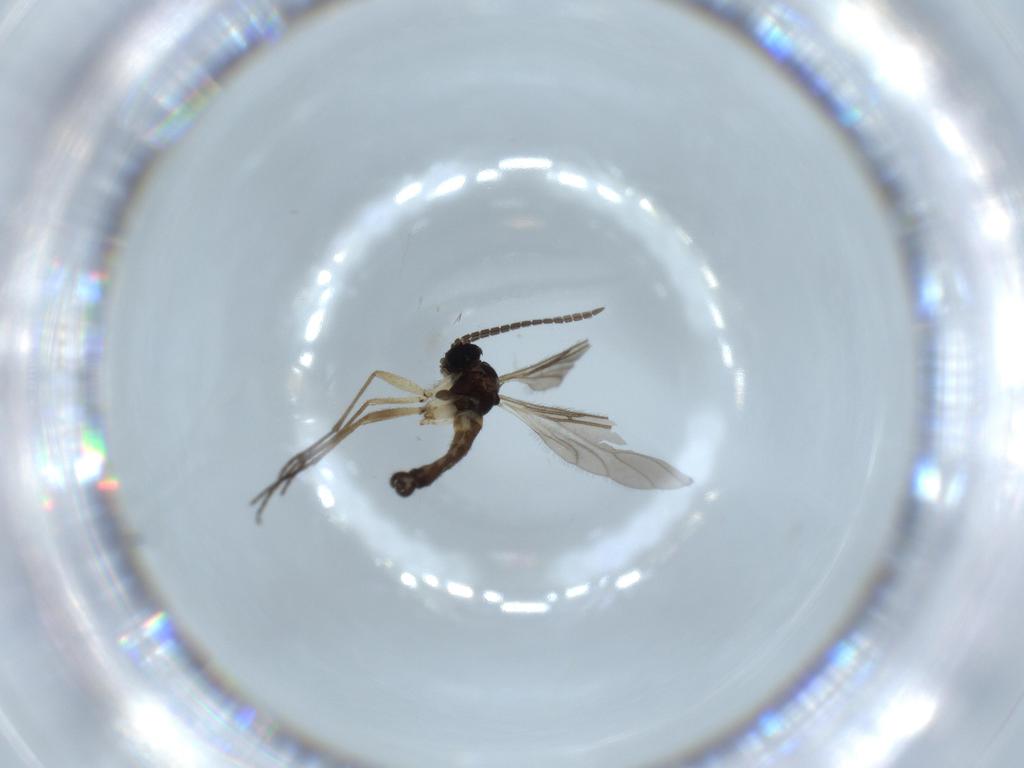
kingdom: Animalia
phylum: Arthropoda
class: Insecta
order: Diptera
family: Sciaridae
